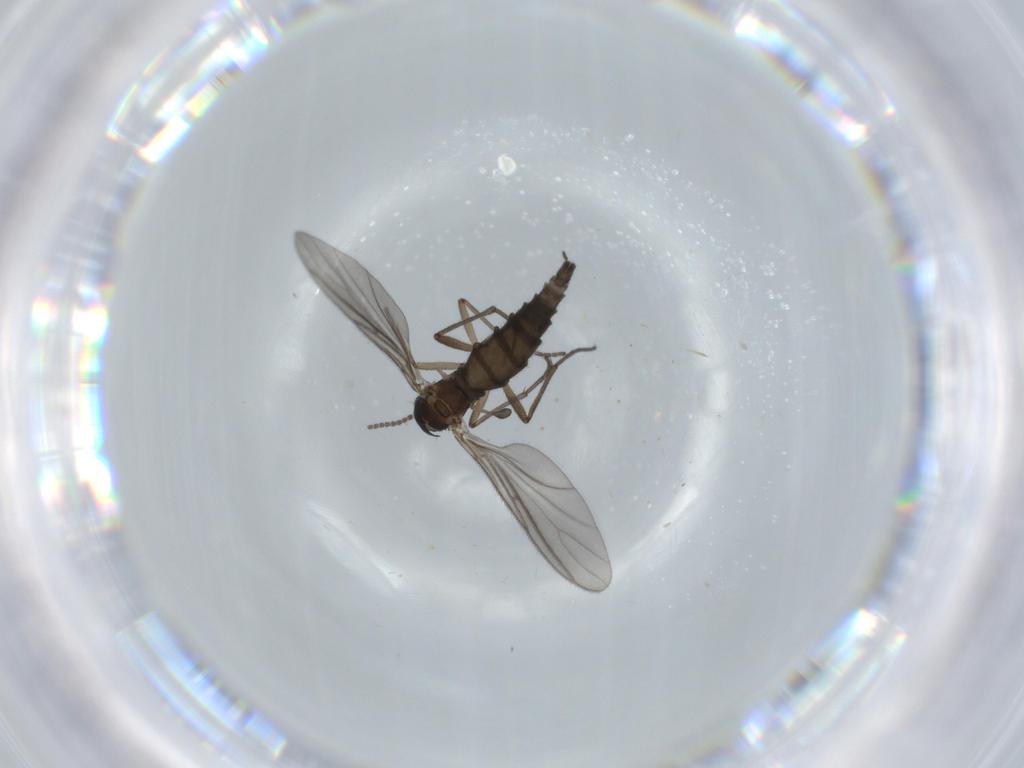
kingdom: Animalia
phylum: Arthropoda
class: Insecta
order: Diptera
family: Sciaridae
